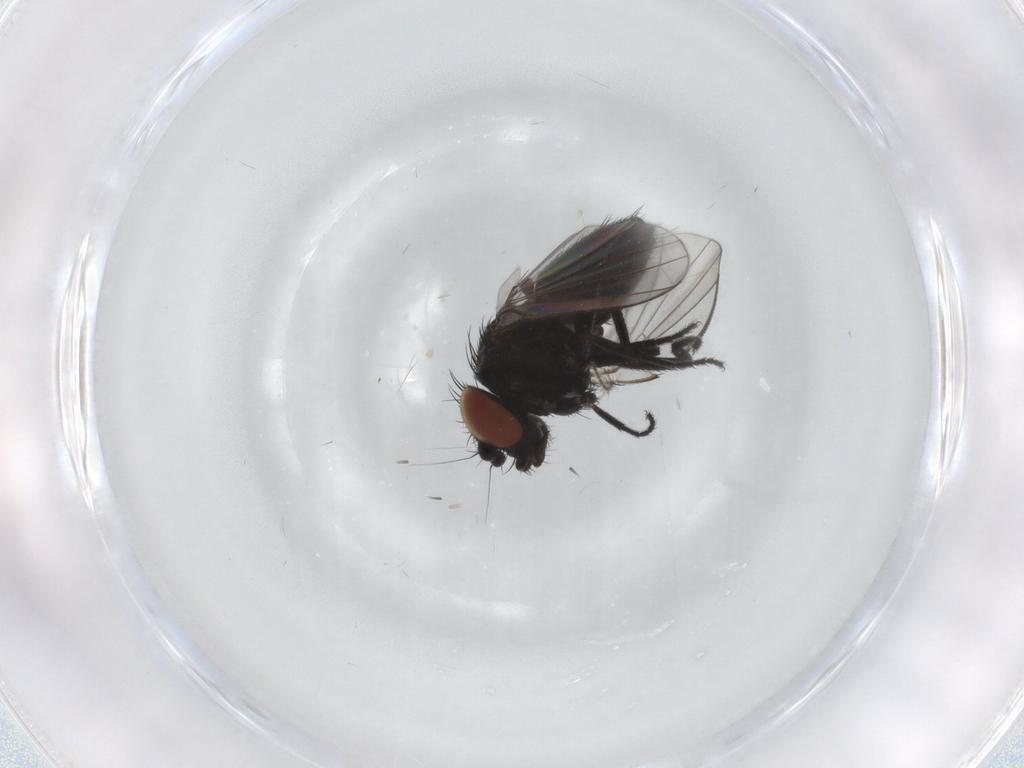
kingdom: Animalia
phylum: Arthropoda
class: Insecta
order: Diptera
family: Milichiidae
